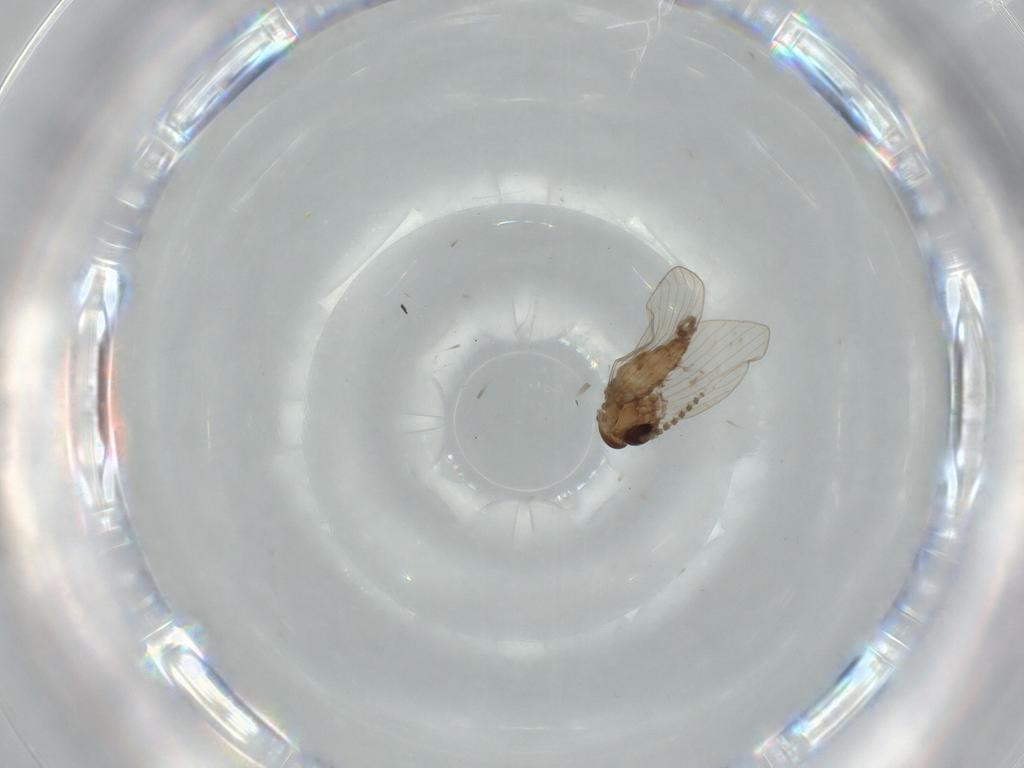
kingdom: Animalia
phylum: Arthropoda
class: Insecta
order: Diptera
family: Psychodidae
